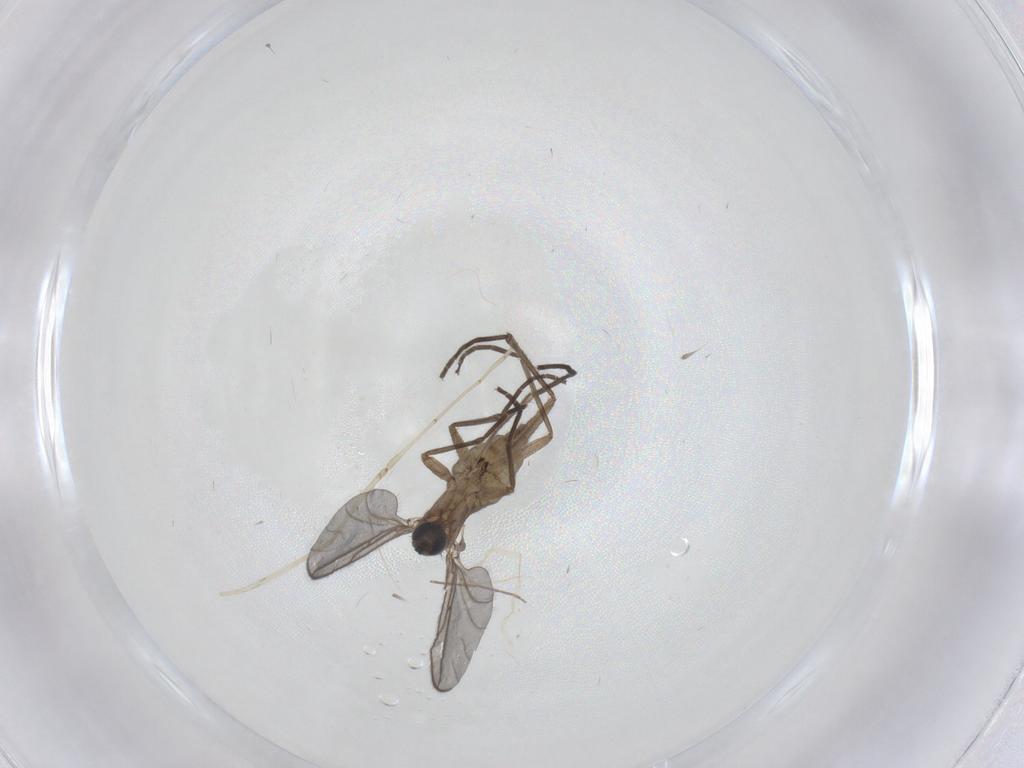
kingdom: Animalia
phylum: Arthropoda
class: Insecta
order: Diptera
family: Sciaridae
